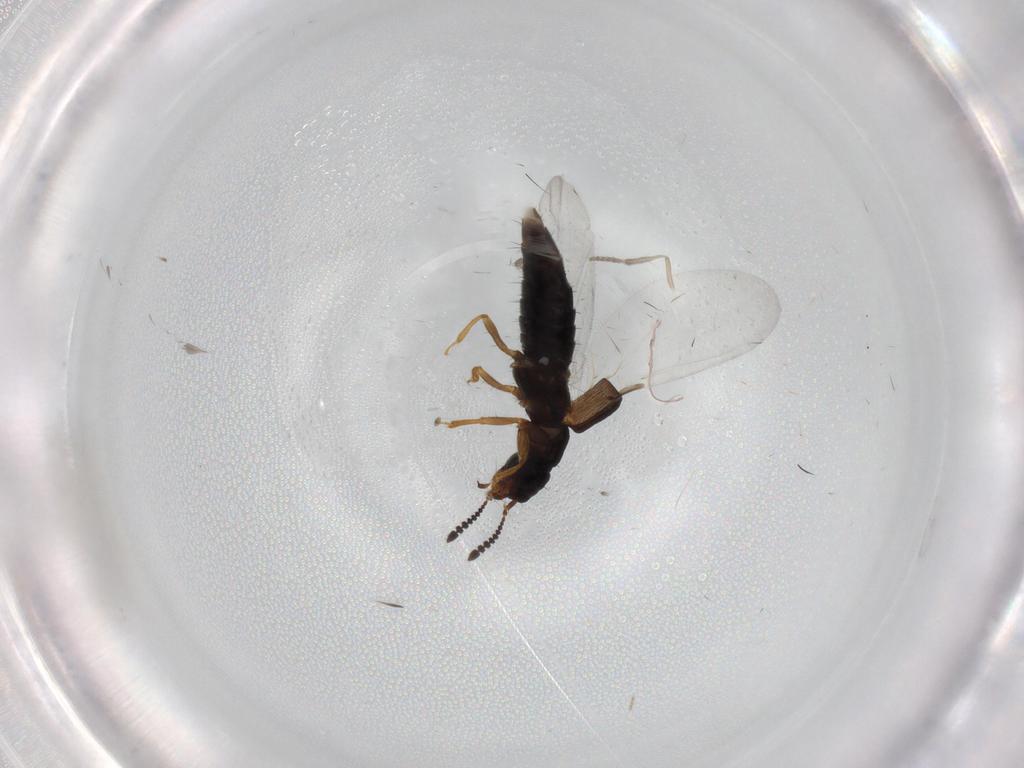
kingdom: Animalia
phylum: Arthropoda
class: Insecta
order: Coleoptera
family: Staphylinidae
